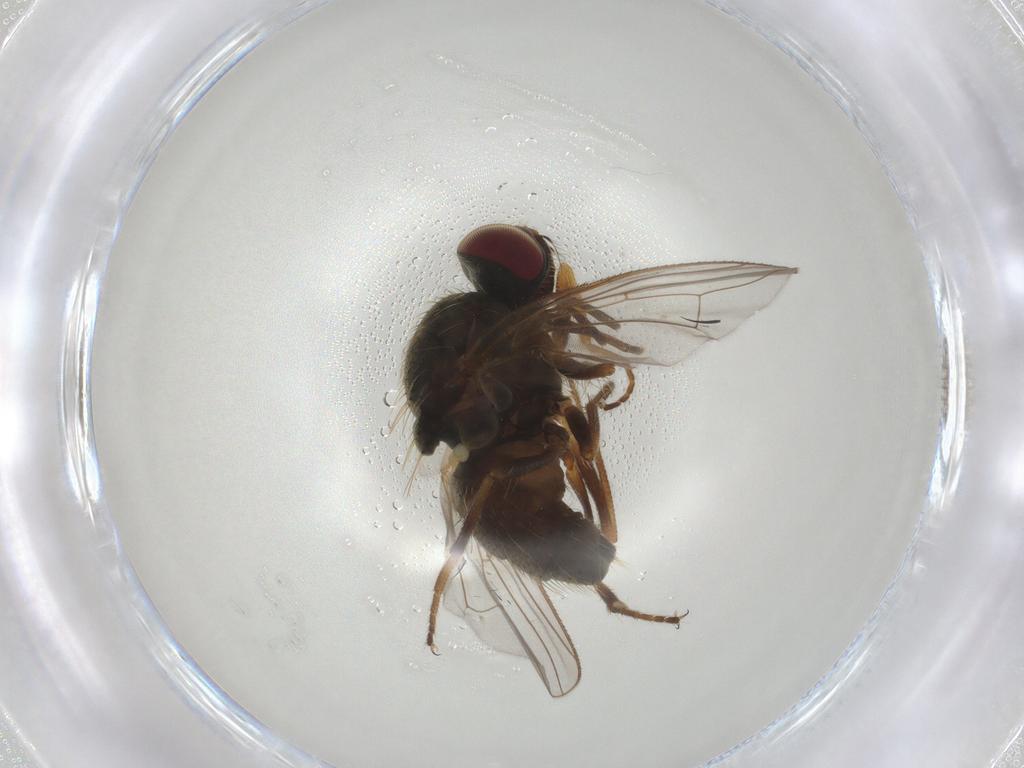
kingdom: Animalia
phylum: Arthropoda
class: Insecta
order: Diptera
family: Muscidae
